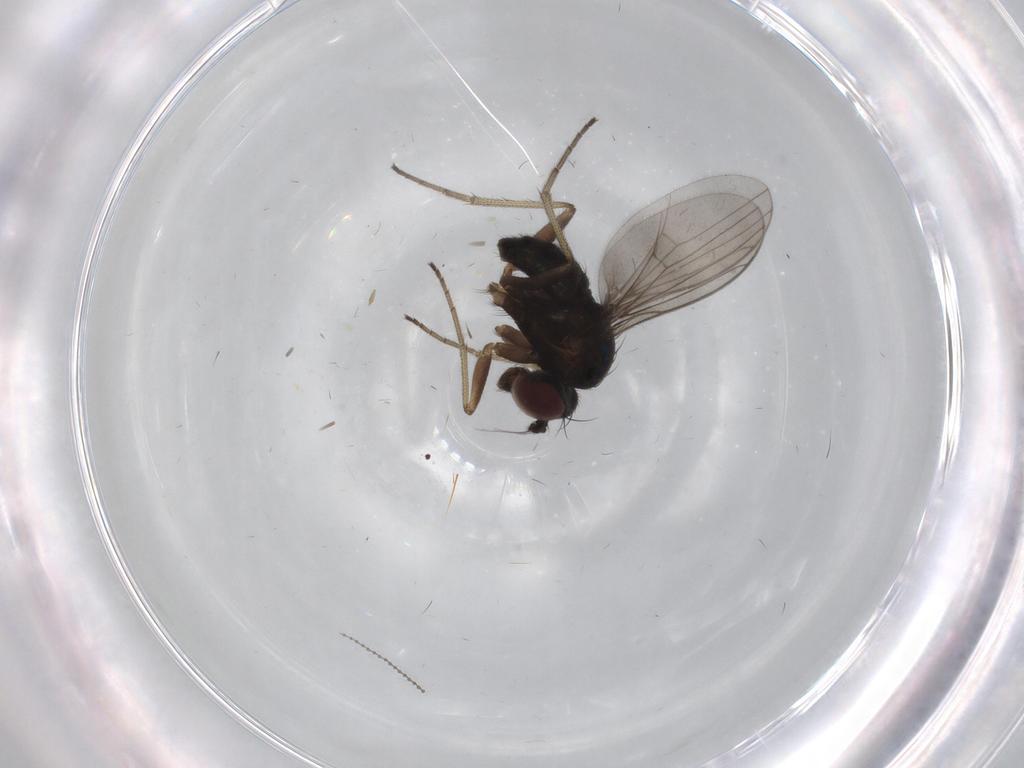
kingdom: Animalia
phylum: Arthropoda
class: Insecta
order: Diptera
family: Dolichopodidae
